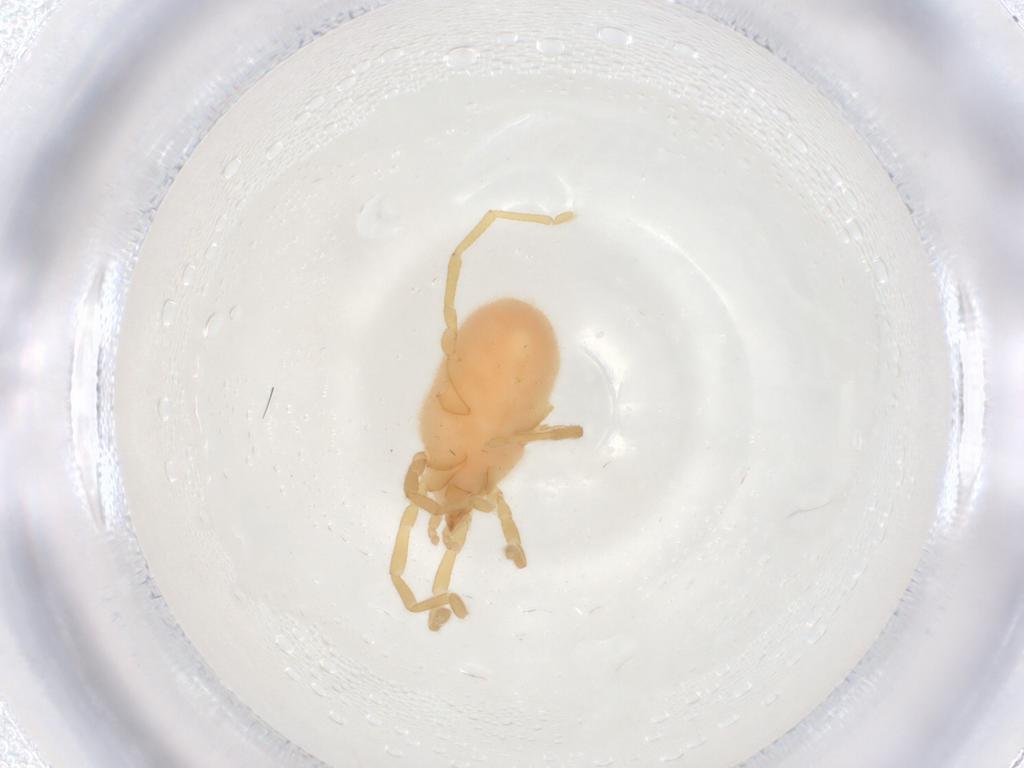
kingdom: Animalia
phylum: Arthropoda
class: Arachnida
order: Trombidiformes
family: Erythraeidae
